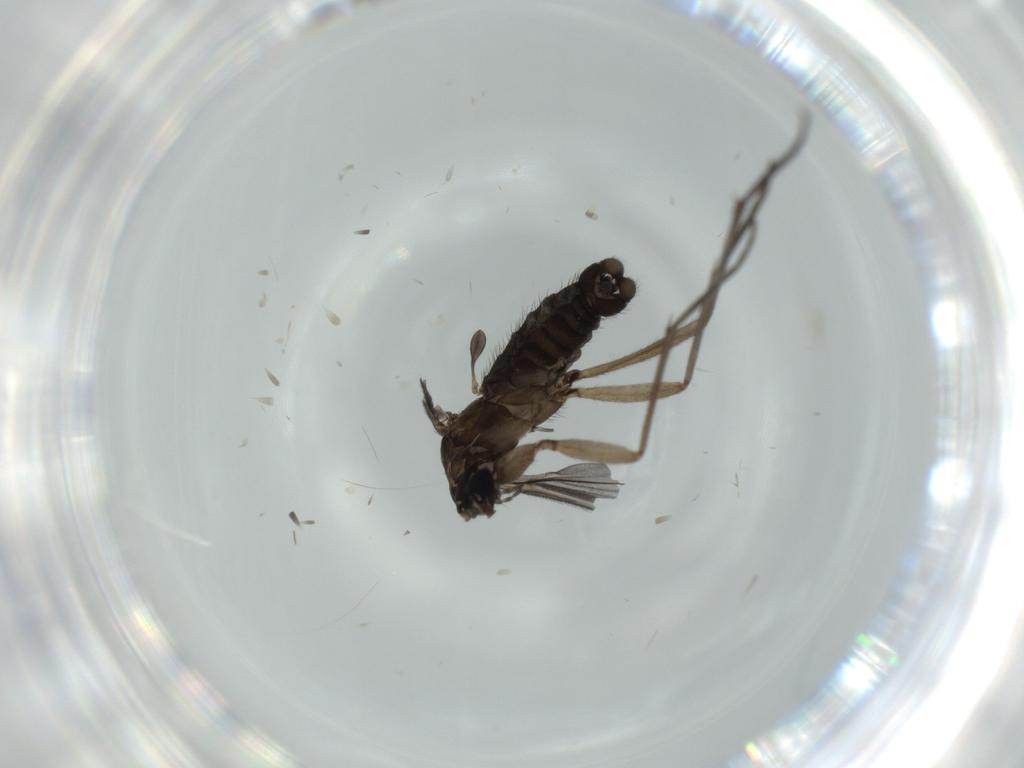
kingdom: Animalia
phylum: Arthropoda
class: Insecta
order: Diptera
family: Sciaridae
